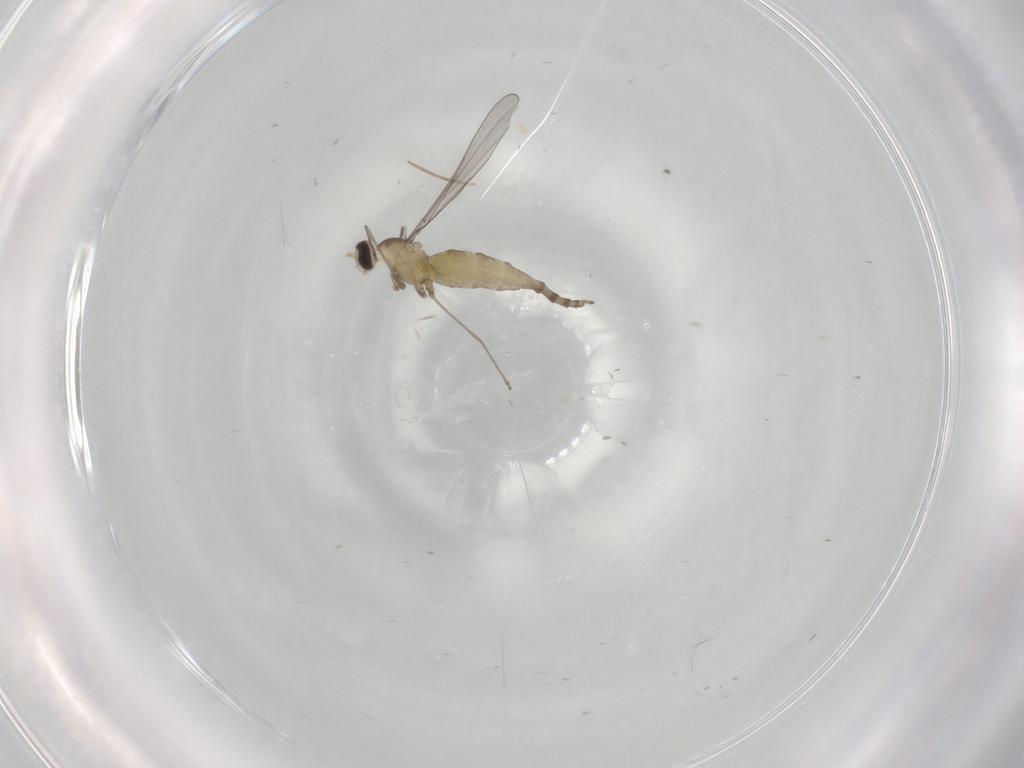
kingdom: Animalia
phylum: Arthropoda
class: Insecta
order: Diptera
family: Cecidomyiidae
